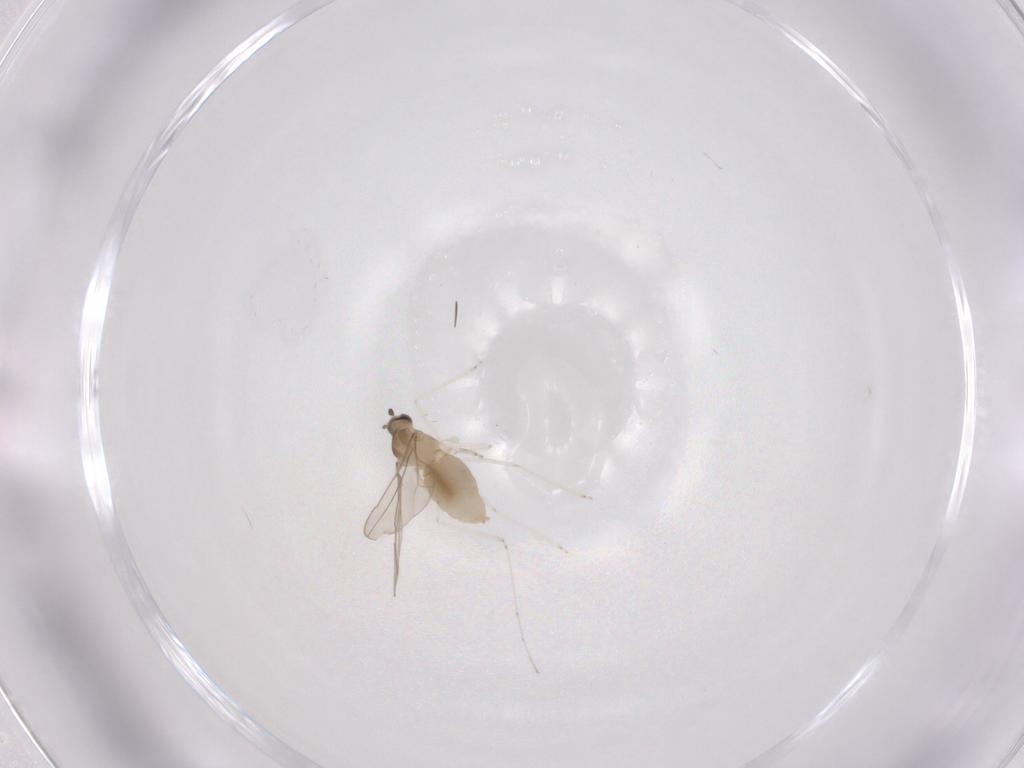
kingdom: Animalia
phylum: Arthropoda
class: Insecta
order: Diptera
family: Cecidomyiidae
